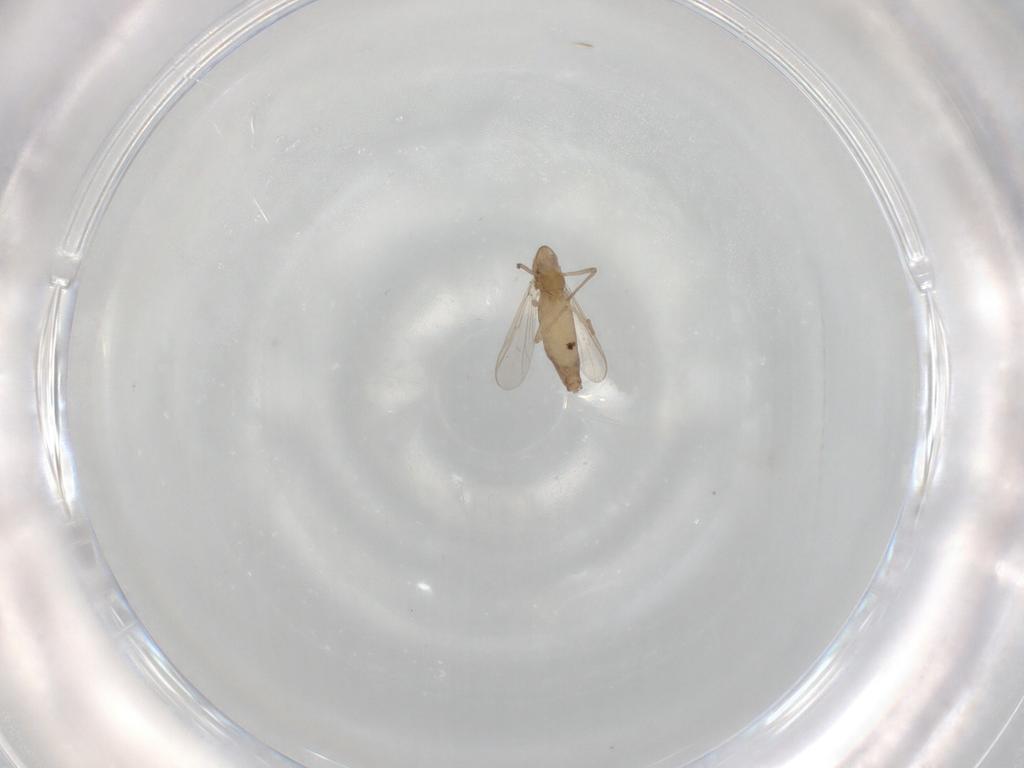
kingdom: Animalia
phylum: Arthropoda
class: Insecta
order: Diptera
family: Chironomidae
